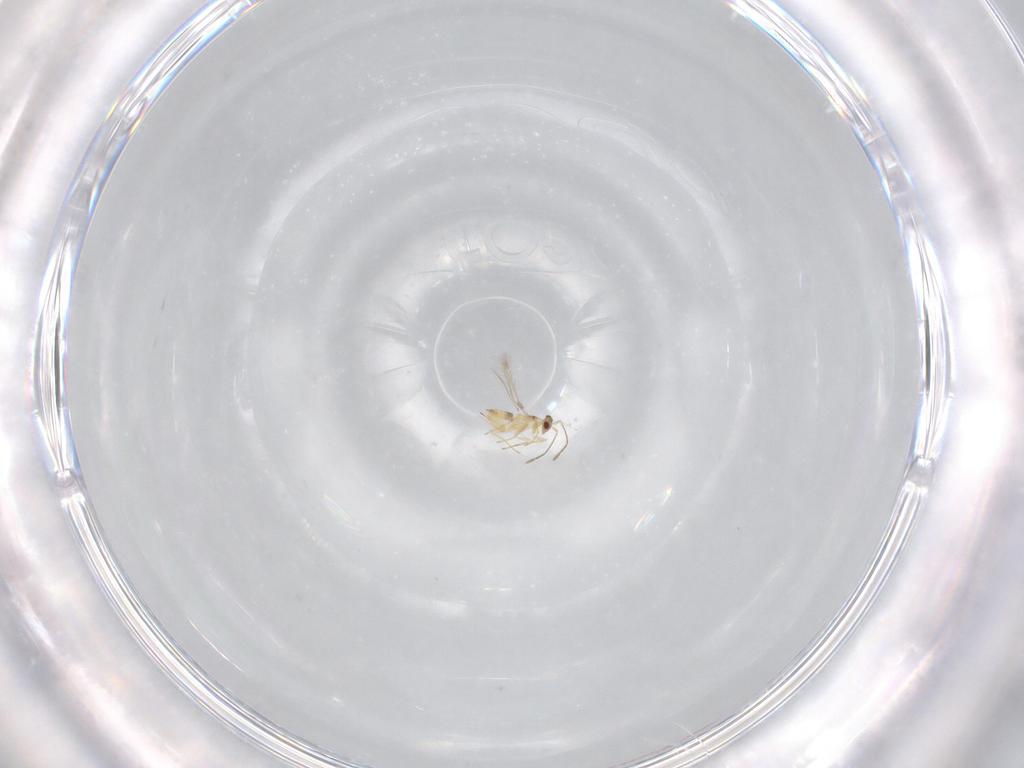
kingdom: Animalia
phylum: Arthropoda
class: Insecta
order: Hymenoptera
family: Mymaridae
